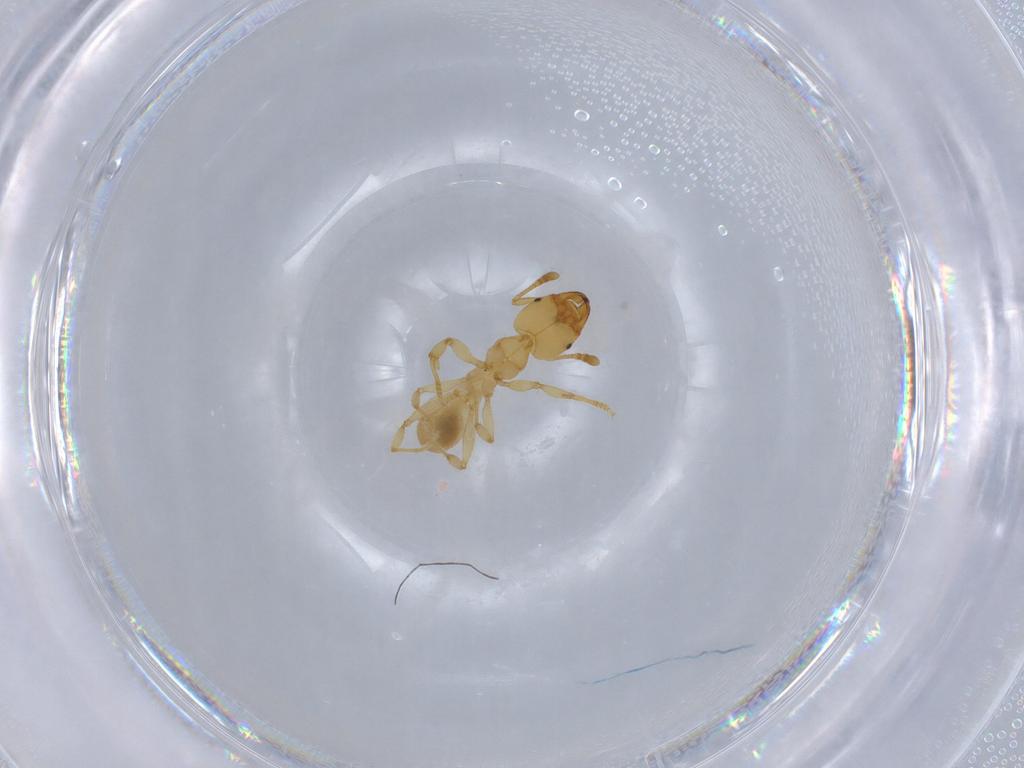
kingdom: Animalia
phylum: Arthropoda
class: Insecta
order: Hymenoptera
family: Formicidae
